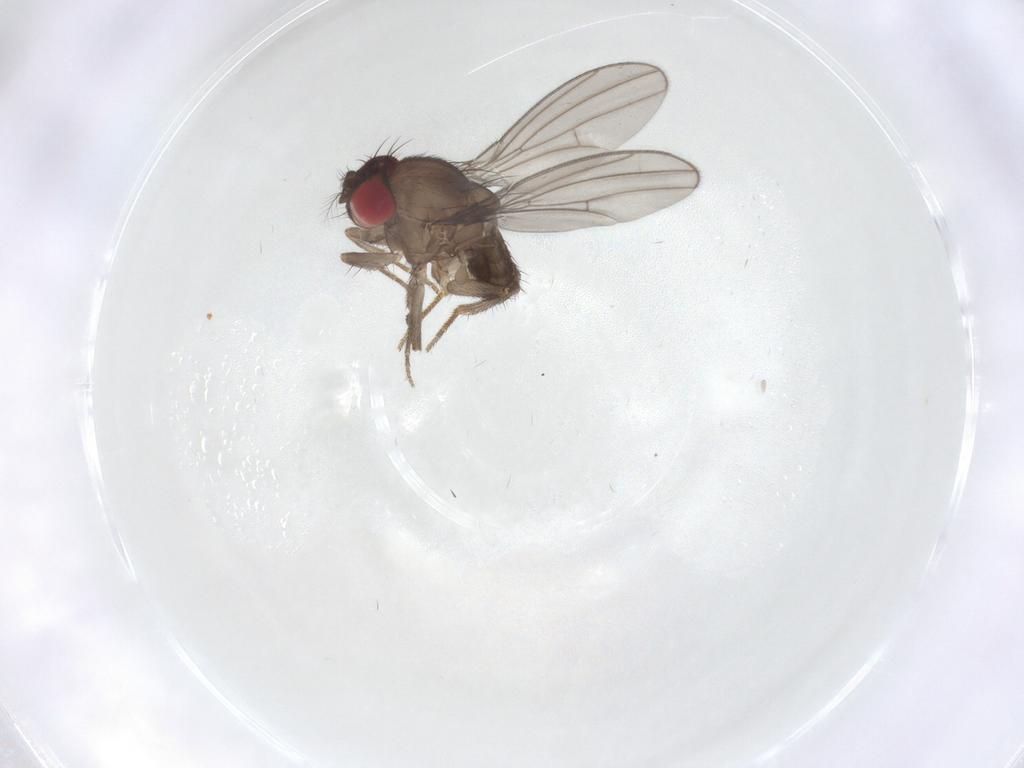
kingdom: Animalia
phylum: Arthropoda
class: Insecta
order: Diptera
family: Drosophilidae
